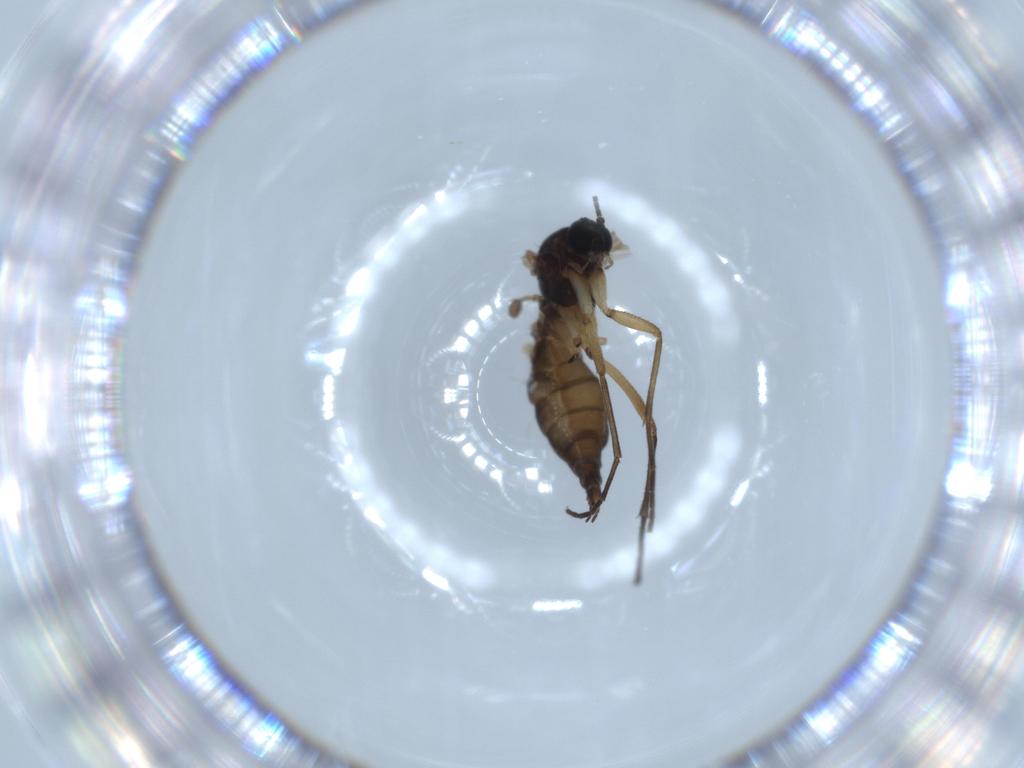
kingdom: Animalia
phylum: Arthropoda
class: Insecta
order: Diptera
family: Sciaridae
